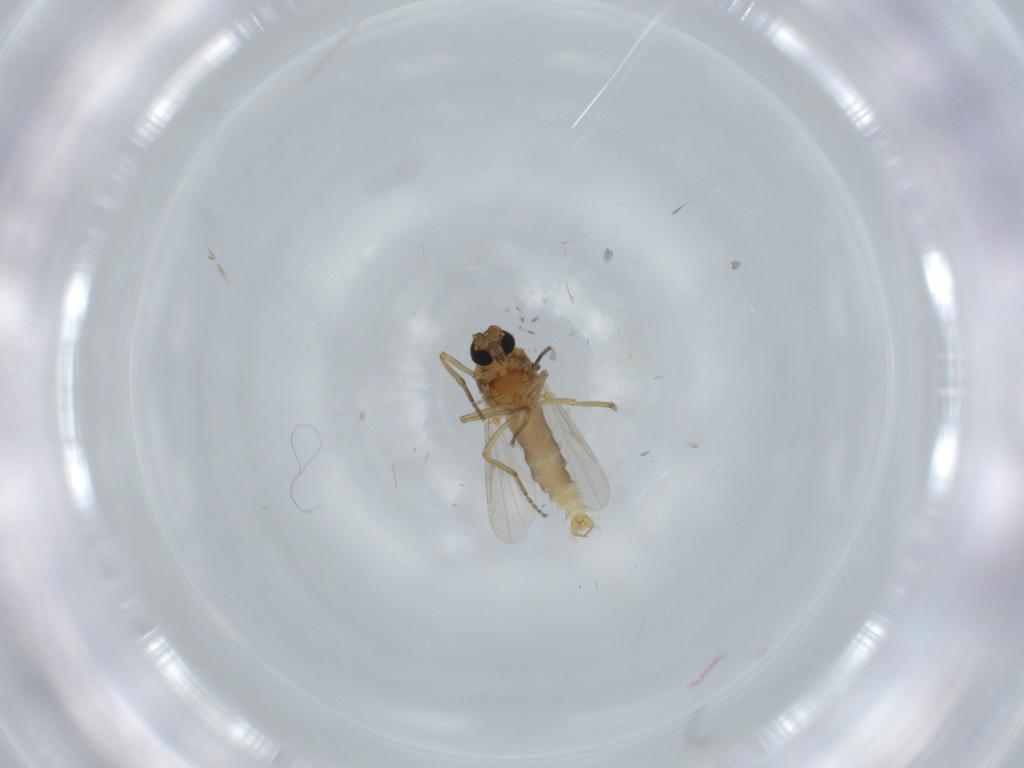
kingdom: Animalia
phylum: Arthropoda
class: Insecta
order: Diptera
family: Ceratopogonidae
